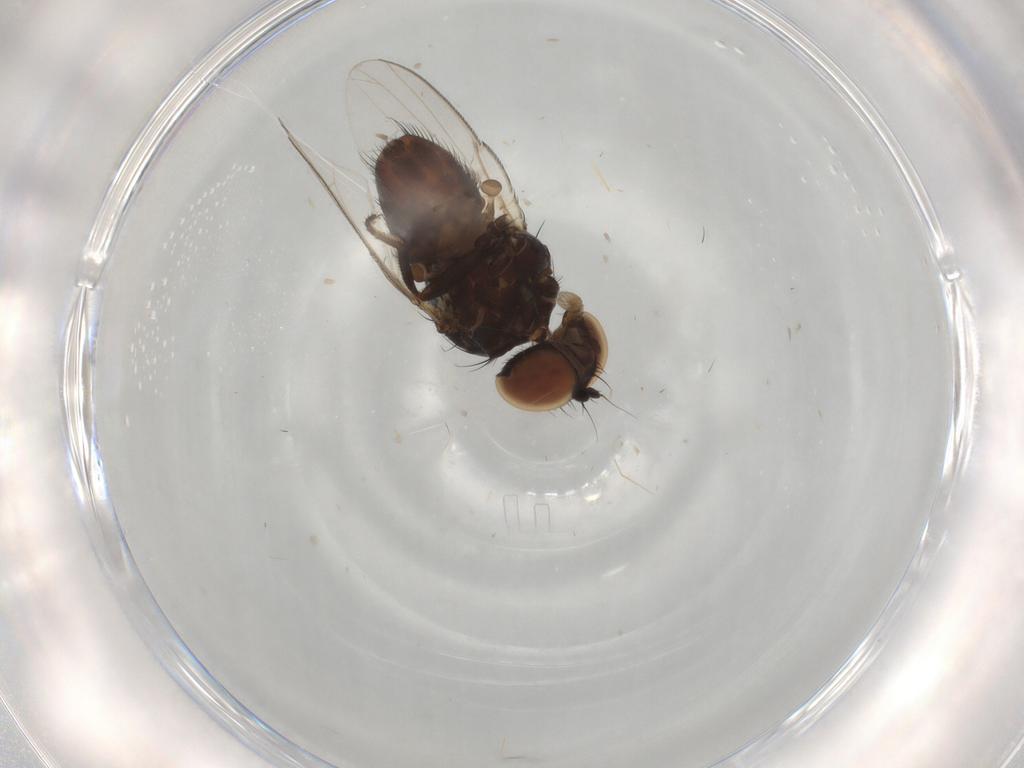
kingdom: Animalia
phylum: Arthropoda
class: Insecta
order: Diptera
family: Milichiidae
